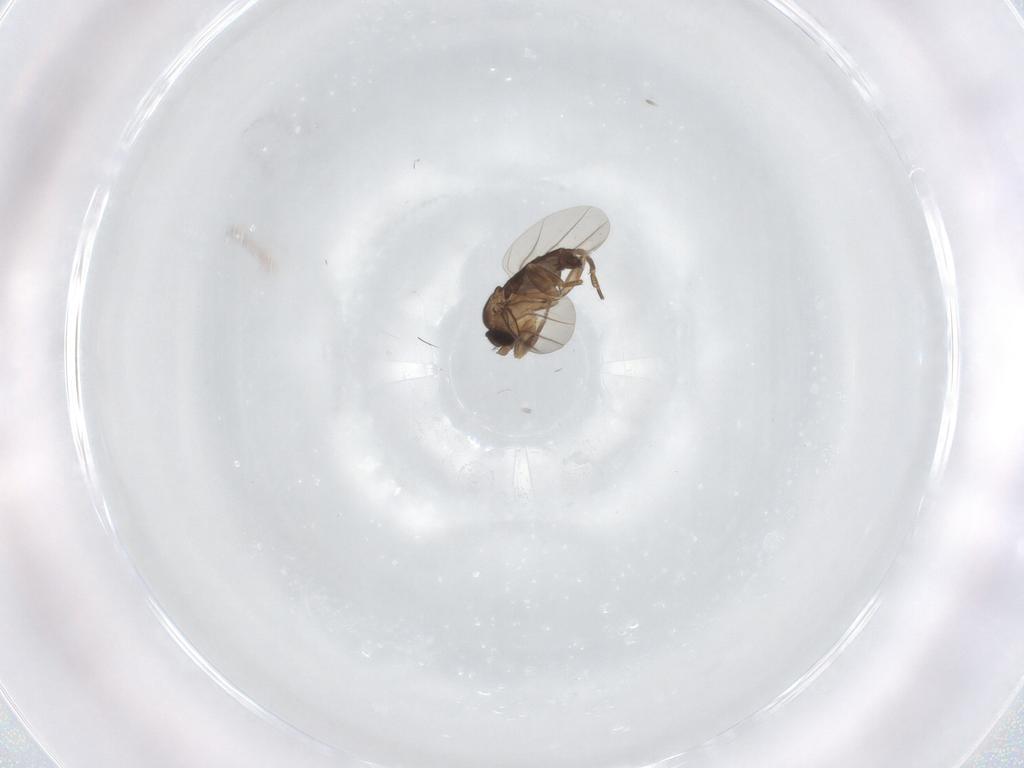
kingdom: Animalia
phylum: Arthropoda
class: Insecta
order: Diptera
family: Phoridae
